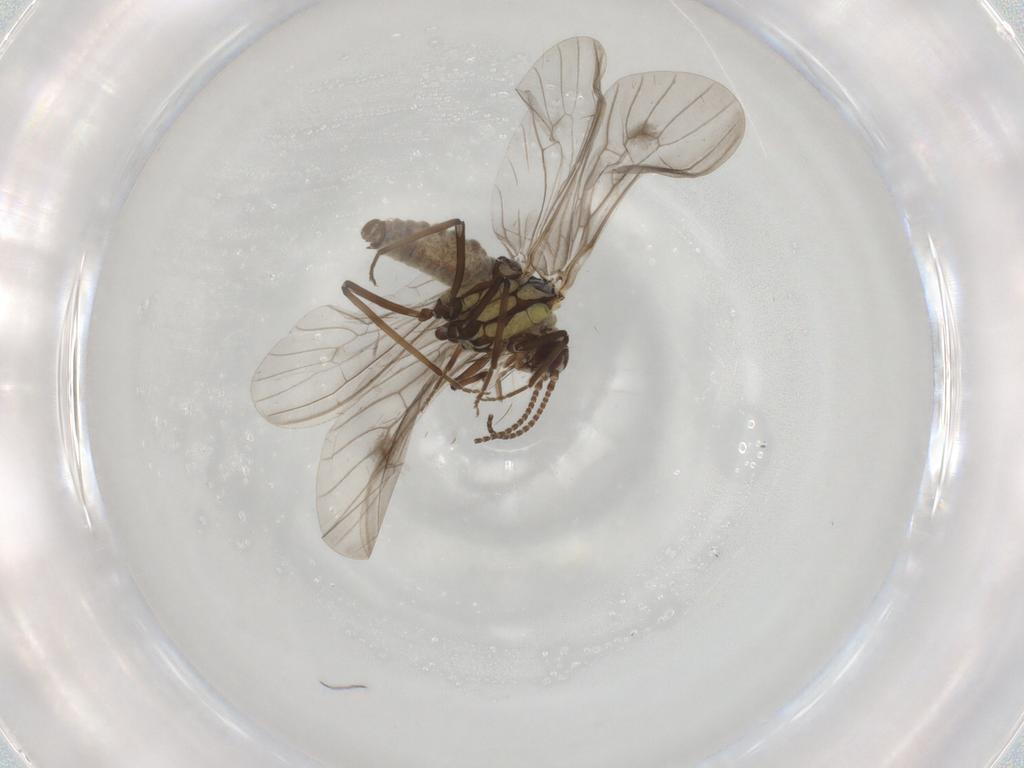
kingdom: Animalia
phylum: Arthropoda
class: Insecta
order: Neuroptera
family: Coniopterygidae
